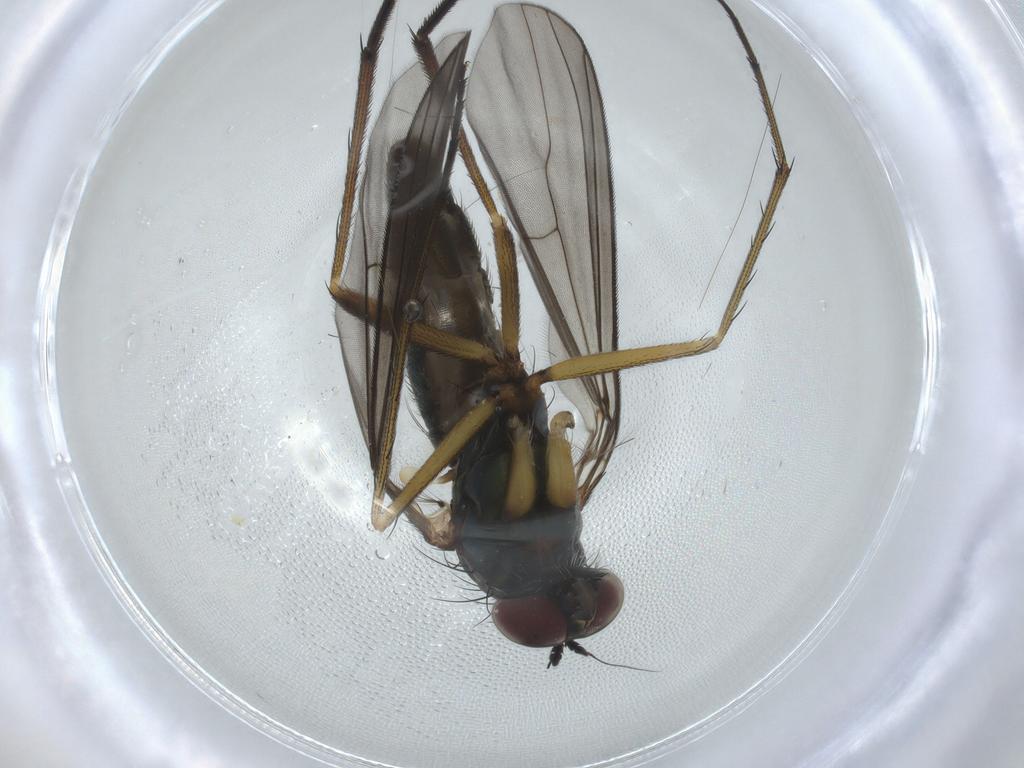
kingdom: Animalia
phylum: Arthropoda
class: Insecta
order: Diptera
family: Dolichopodidae
